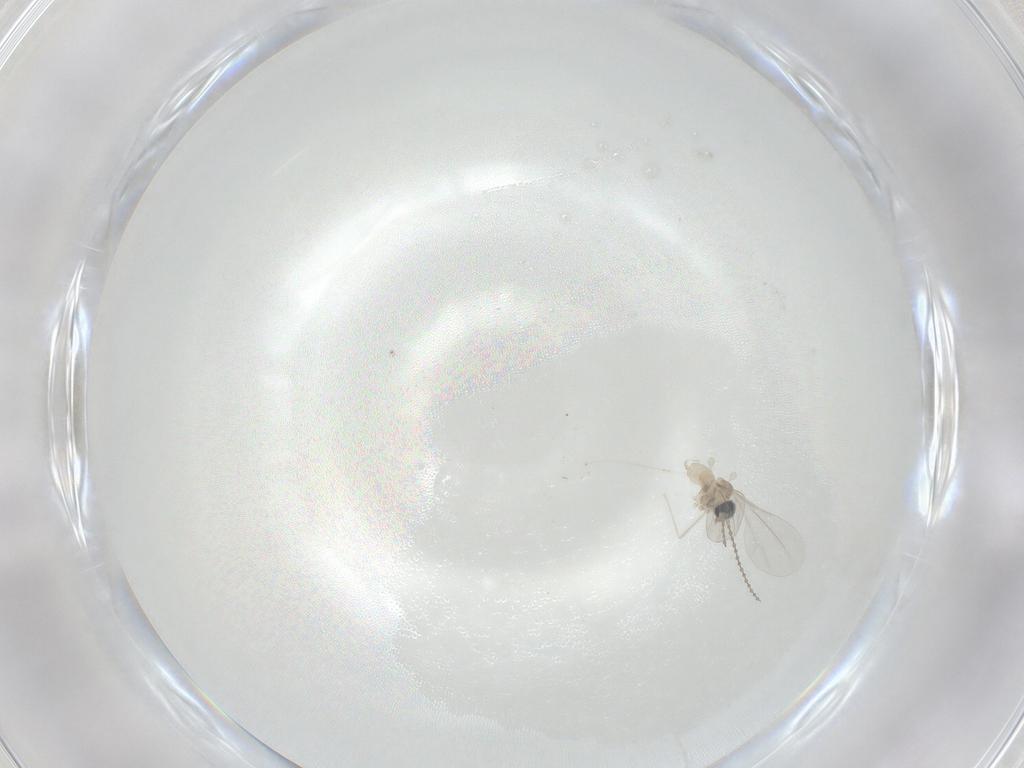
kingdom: Animalia
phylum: Arthropoda
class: Insecta
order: Diptera
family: Cecidomyiidae
